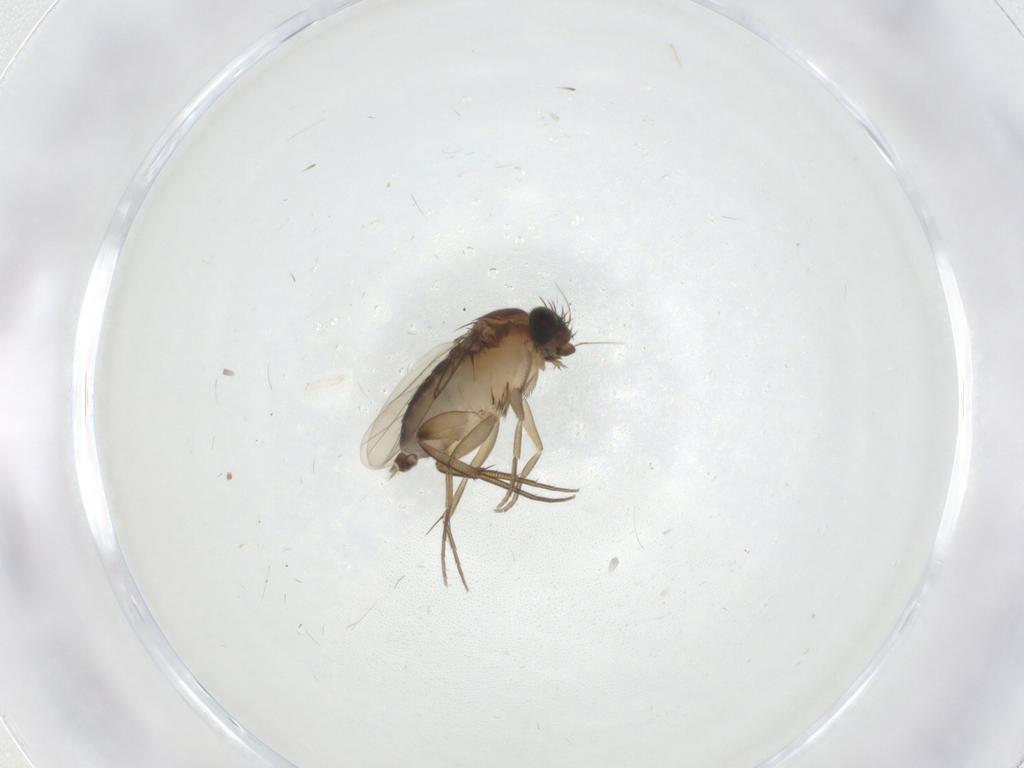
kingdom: Animalia
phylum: Arthropoda
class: Insecta
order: Diptera
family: Phoridae
